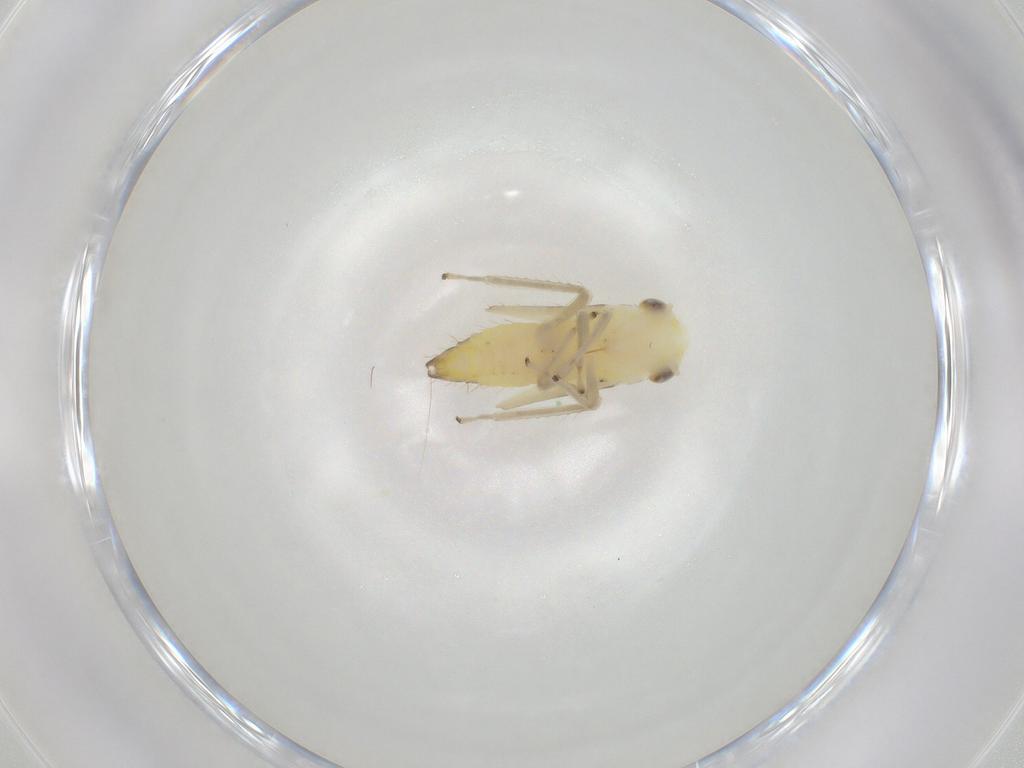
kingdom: Animalia
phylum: Arthropoda
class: Insecta
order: Hemiptera
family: Cicadellidae
